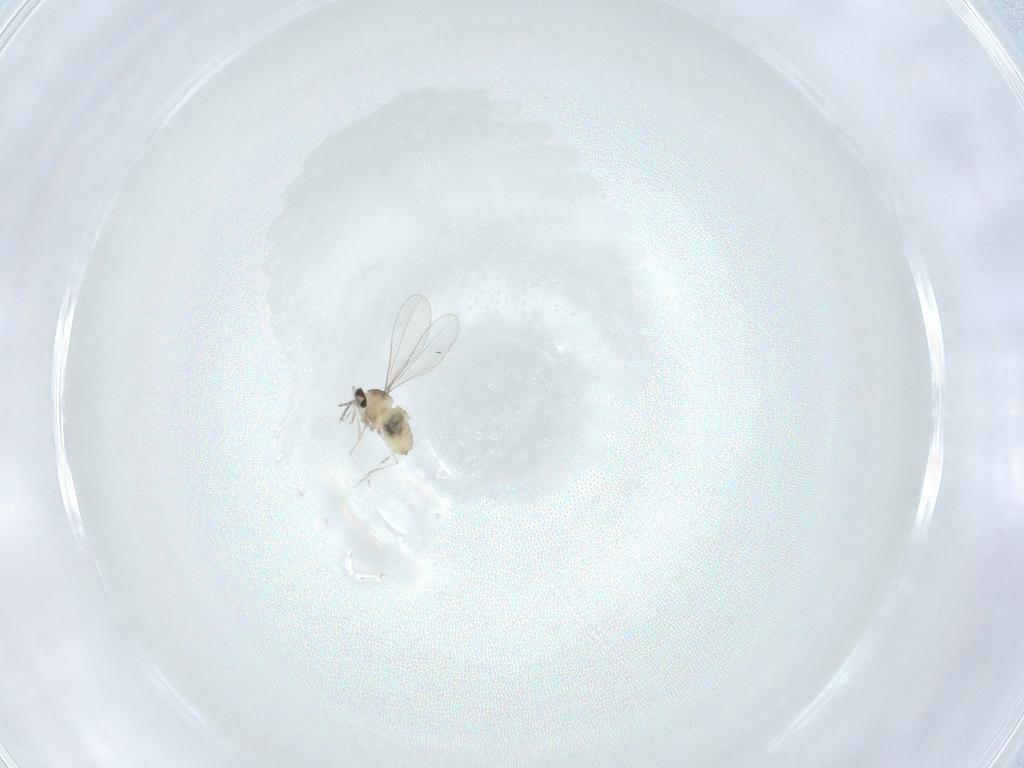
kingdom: Animalia
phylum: Arthropoda
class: Insecta
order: Diptera
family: Cecidomyiidae
